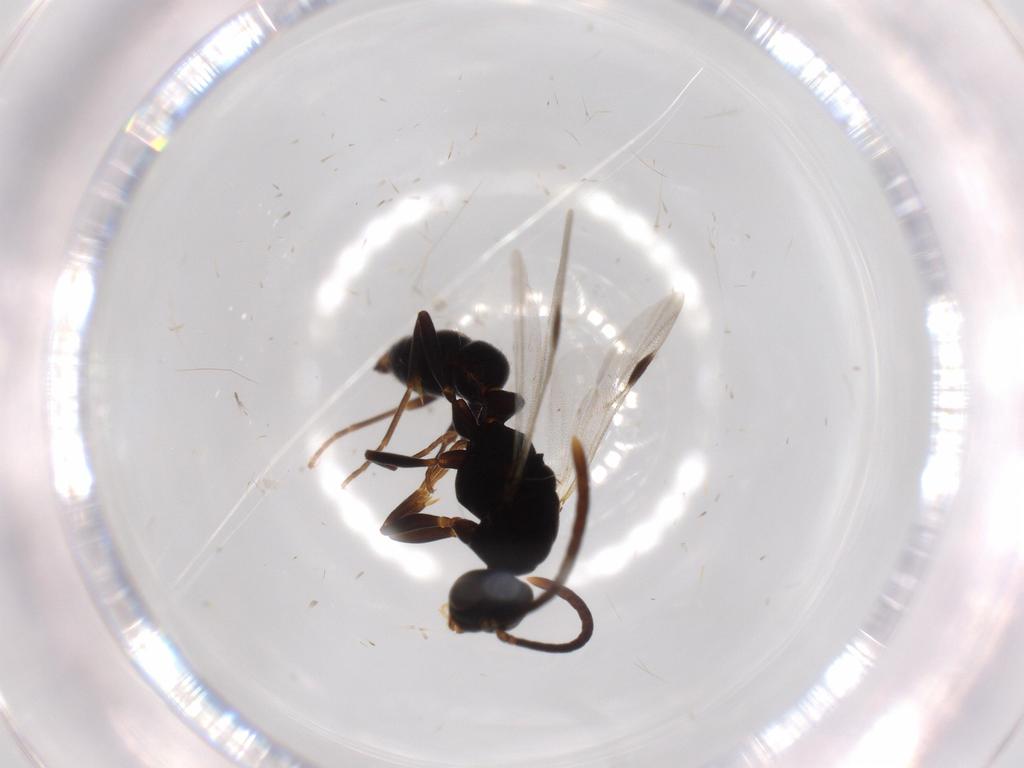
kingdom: Animalia
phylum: Arthropoda
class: Insecta
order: Hymenoptera
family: Formicidae
